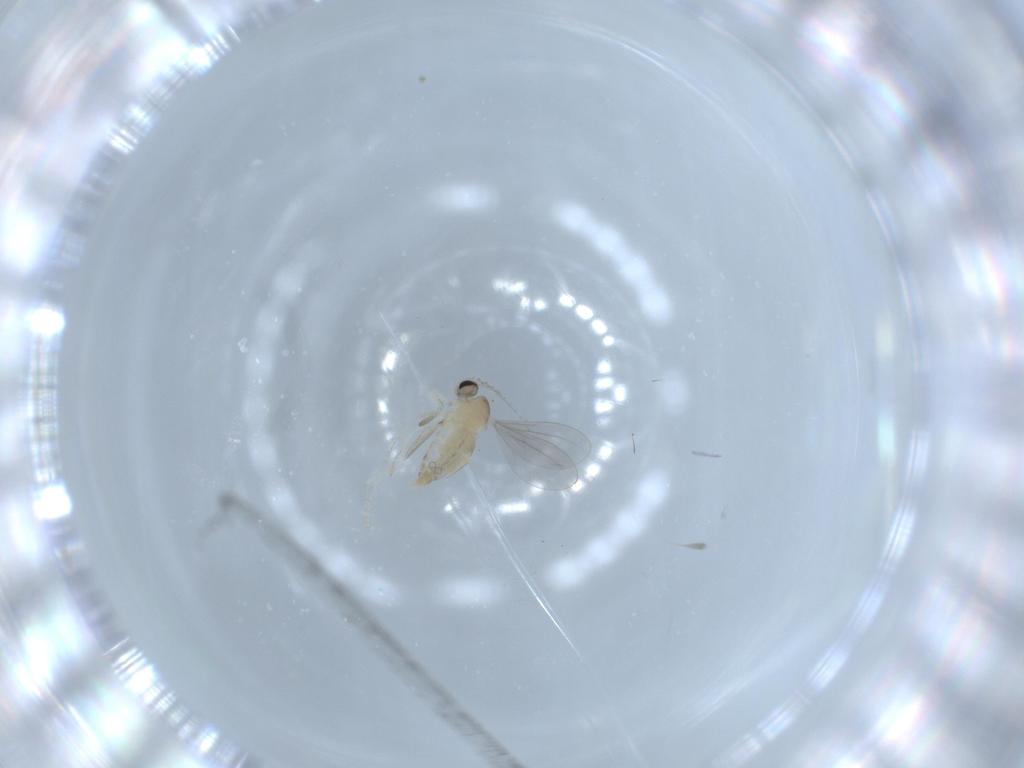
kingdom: Animalia
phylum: Arthropoda
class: Insecta
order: Diptera
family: Cecidomyiidae
